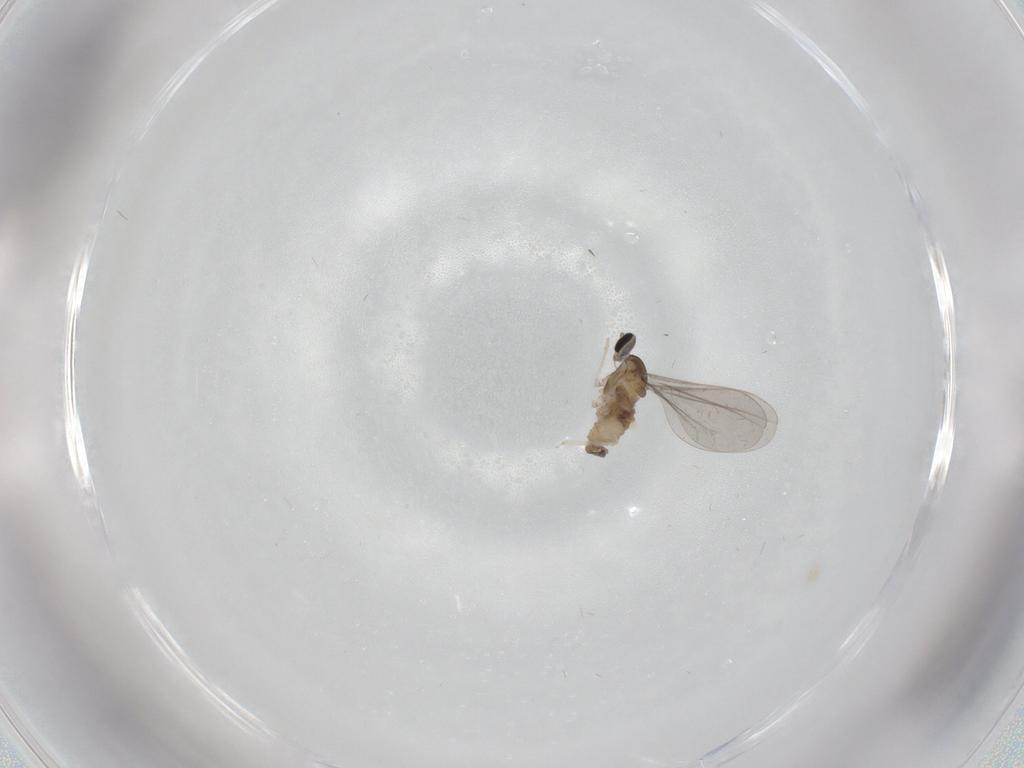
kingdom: Animalia
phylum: Arthropoda
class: Insecta
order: Diptera
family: Cecidomyiidae
